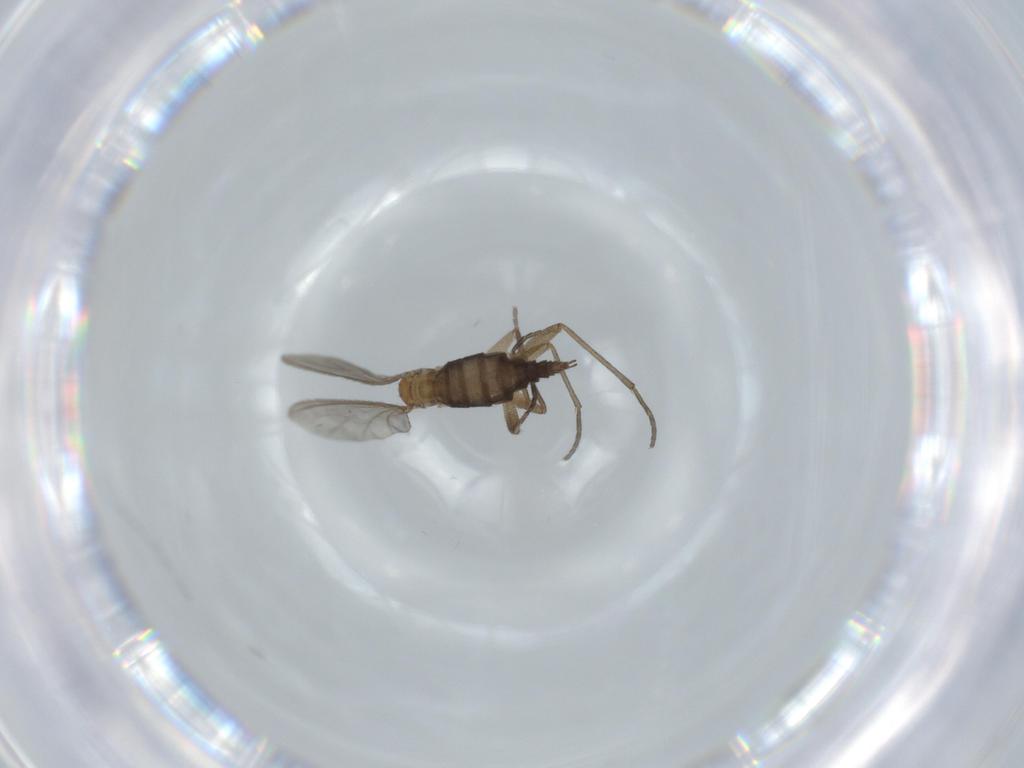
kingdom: Animalia
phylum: Arthropoda
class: Insecta
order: Diptera
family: Sciaridae
